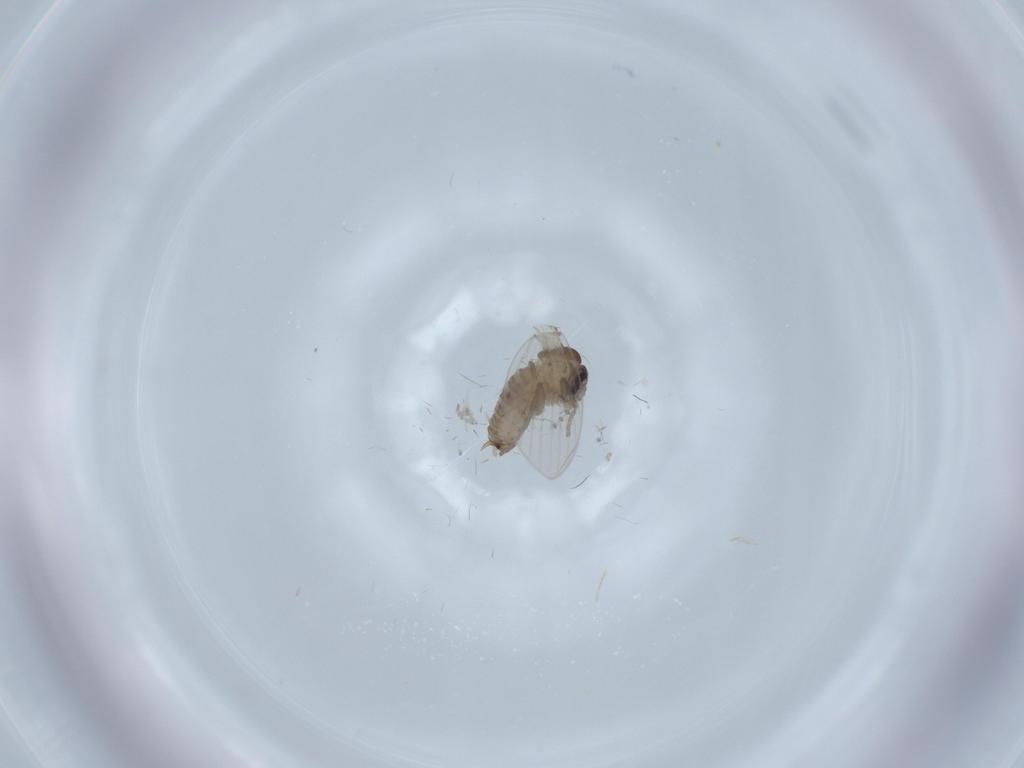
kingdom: Animalia
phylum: Arthropoda
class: Insecta
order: Diptera
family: Psychodidae
